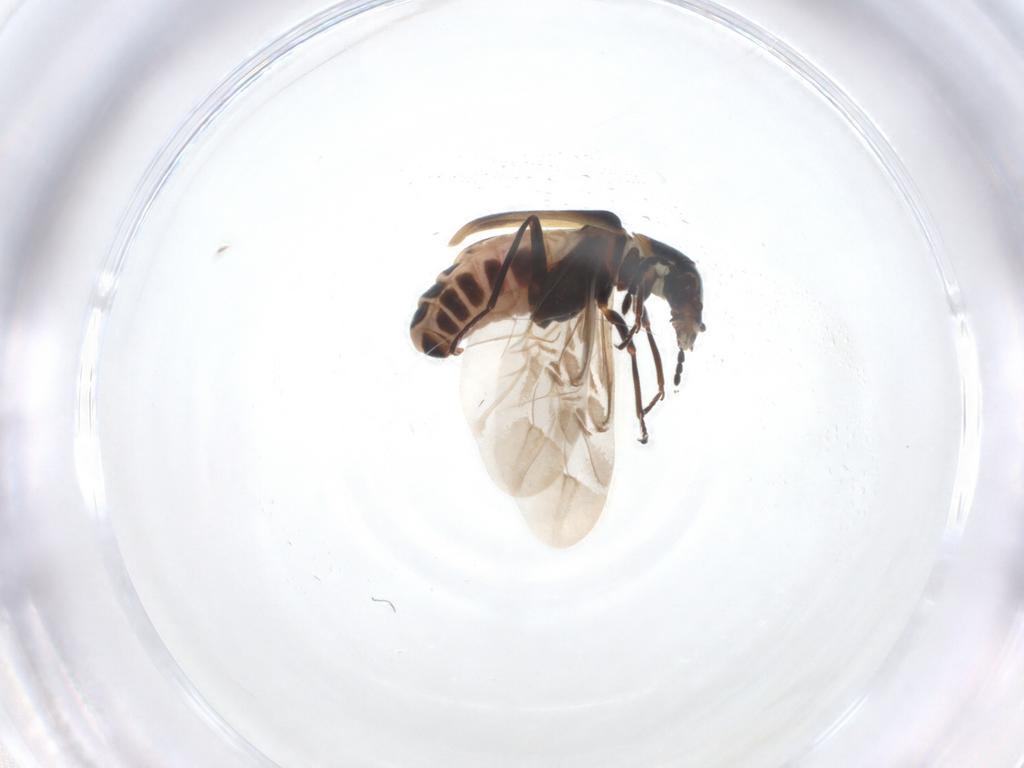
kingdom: Animalia
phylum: Arthropoda
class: Insecta
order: Coleoptera
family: Melyridae
